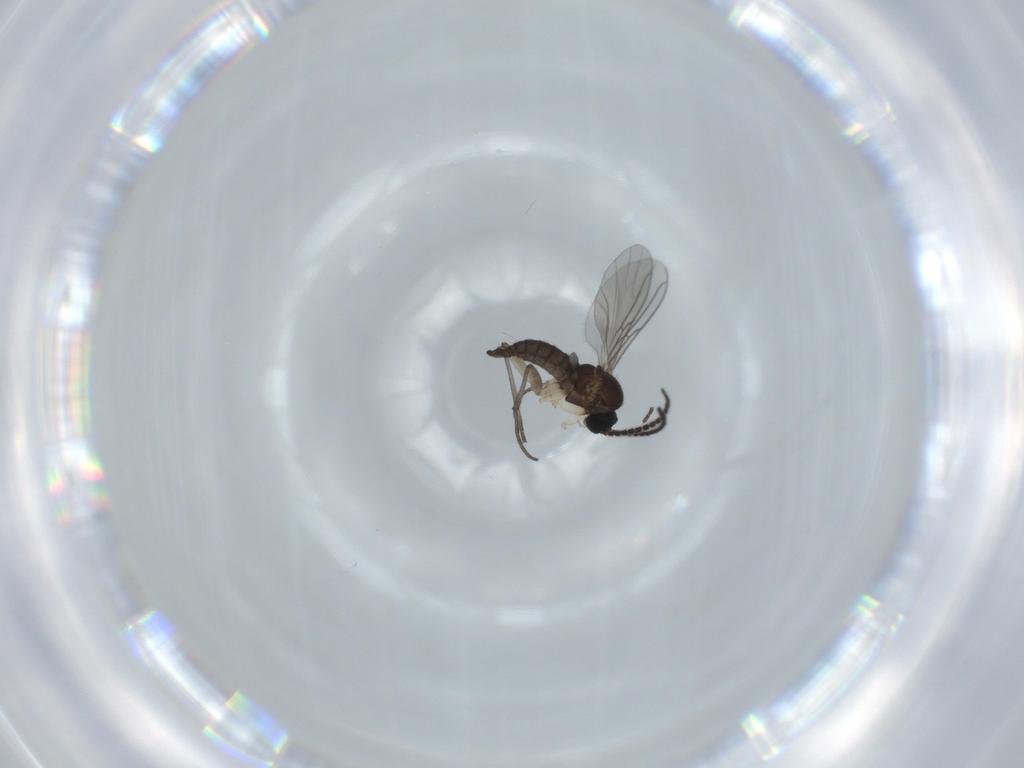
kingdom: Animalia
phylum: Arthropoda
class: Insecta
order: Diptera
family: Sciaridae
